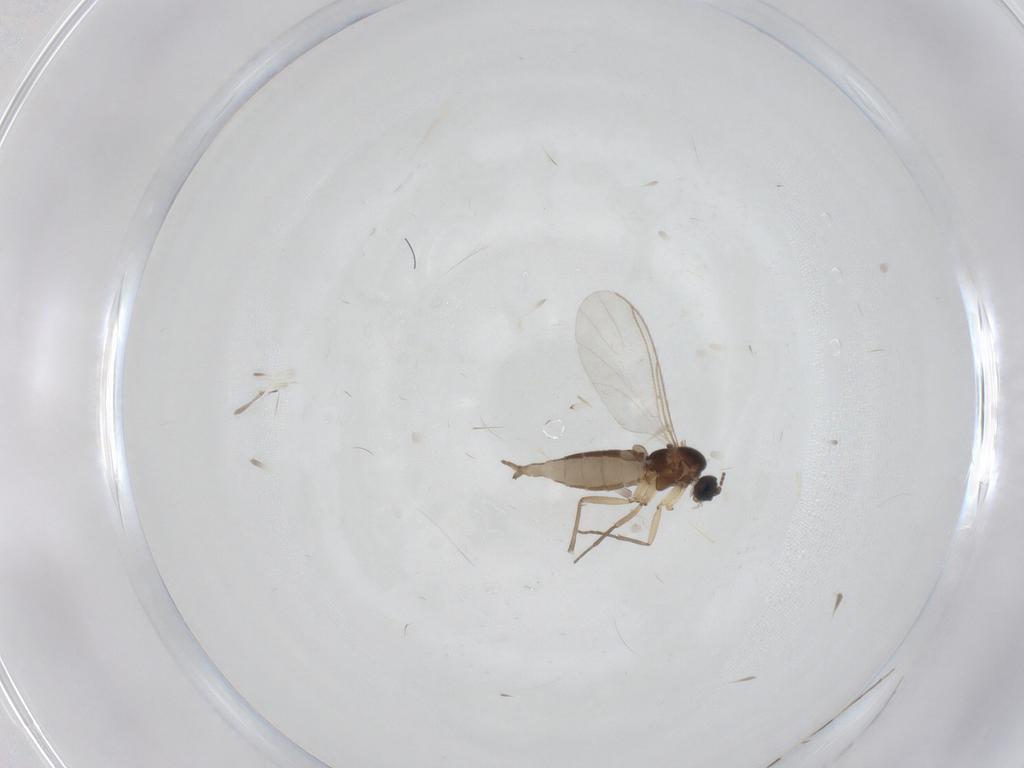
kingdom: Animalia
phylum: Arthropoda
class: Insecta
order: Diptera
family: Sciaridae
